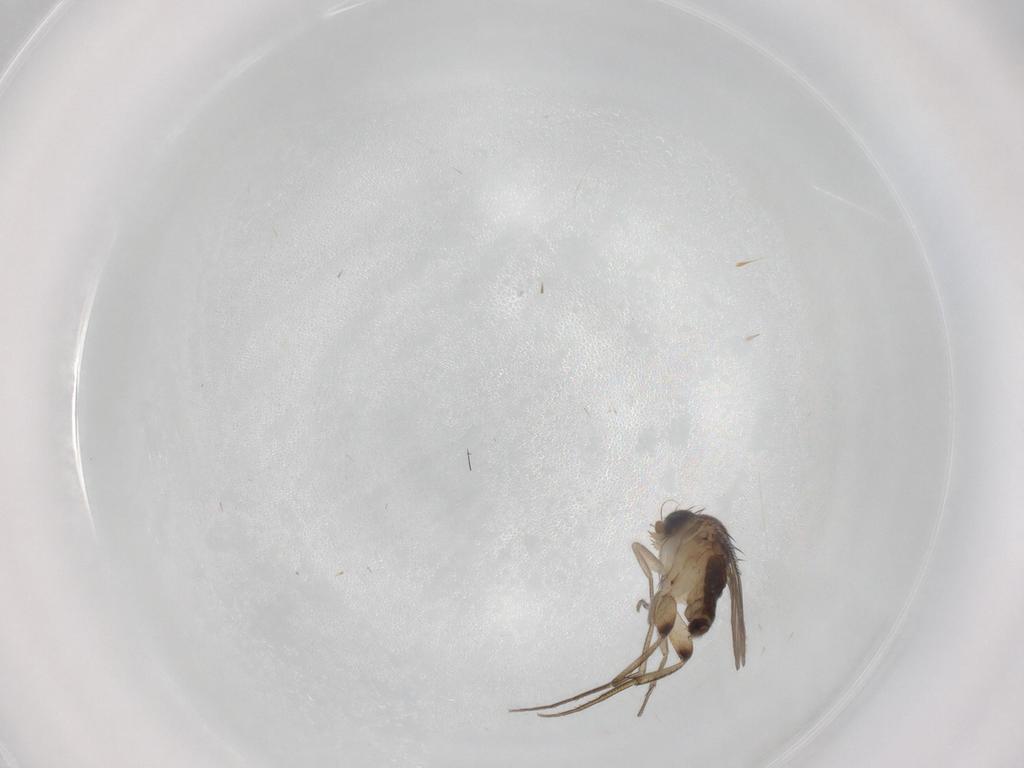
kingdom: Animalia
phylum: Arthropoda
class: Insecta
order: Diptera
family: Phoridae
